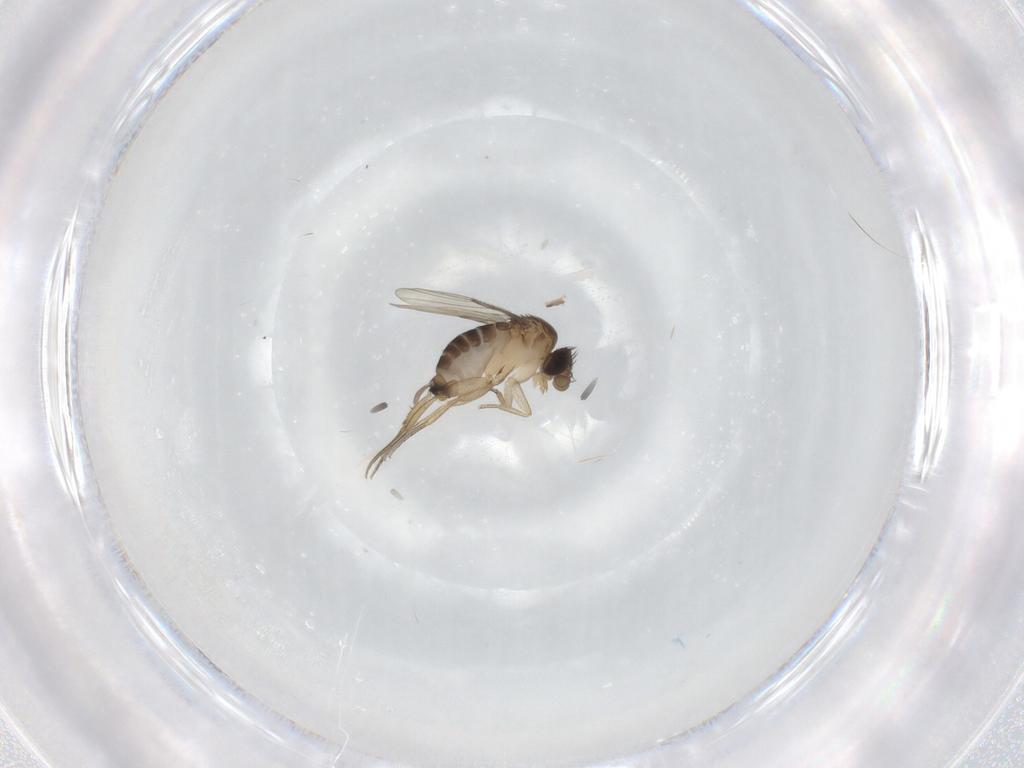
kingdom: Animalia
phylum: Arthropoda
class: Insecta
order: Diptera
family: Phoridae
